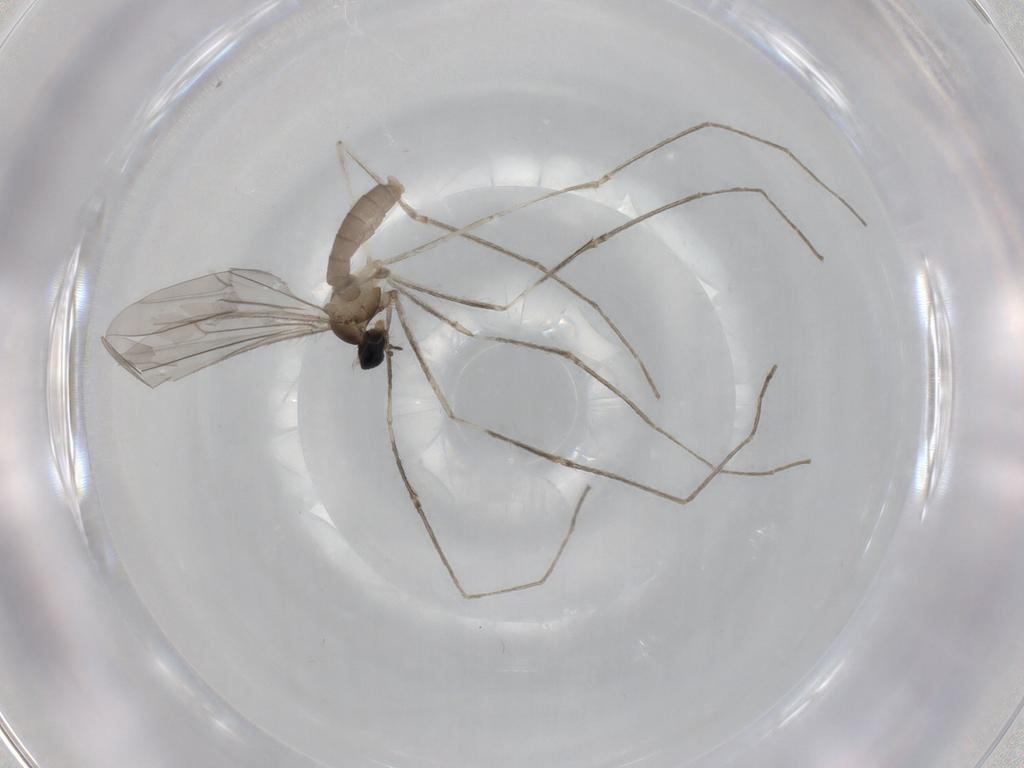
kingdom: Animalia
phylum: Arthropoda
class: Insecta
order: Diptera
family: Cecidomyiidae
